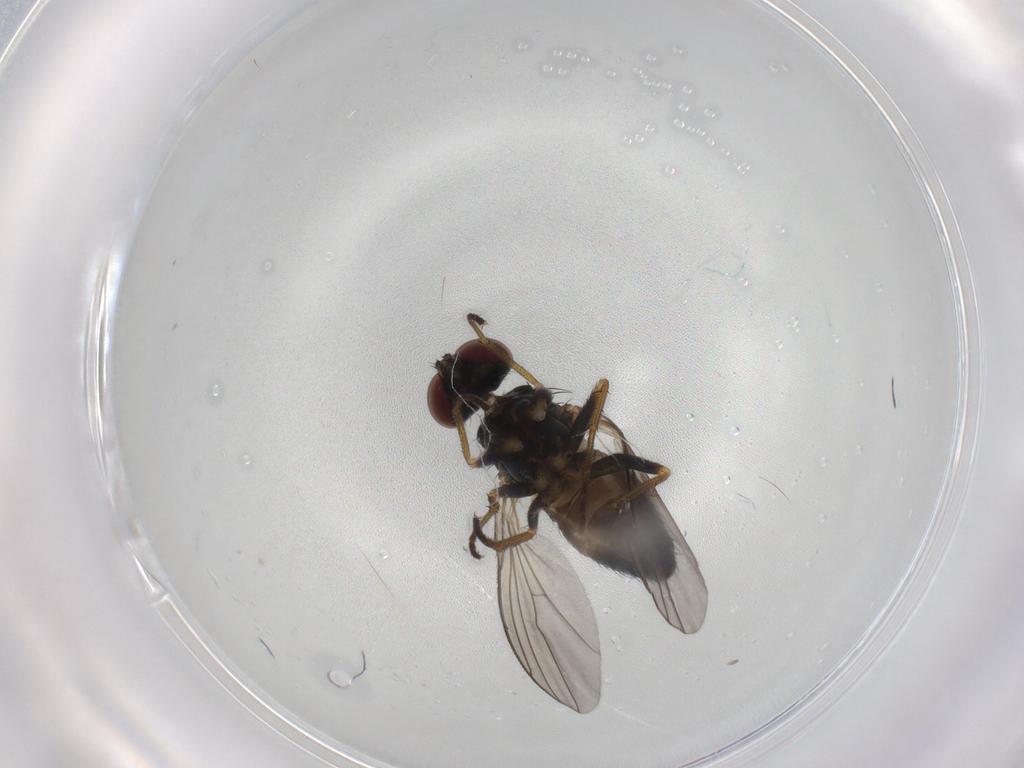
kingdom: Animalia
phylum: Arthropoda
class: Insecta
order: Diptera
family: Dolichopodidae
